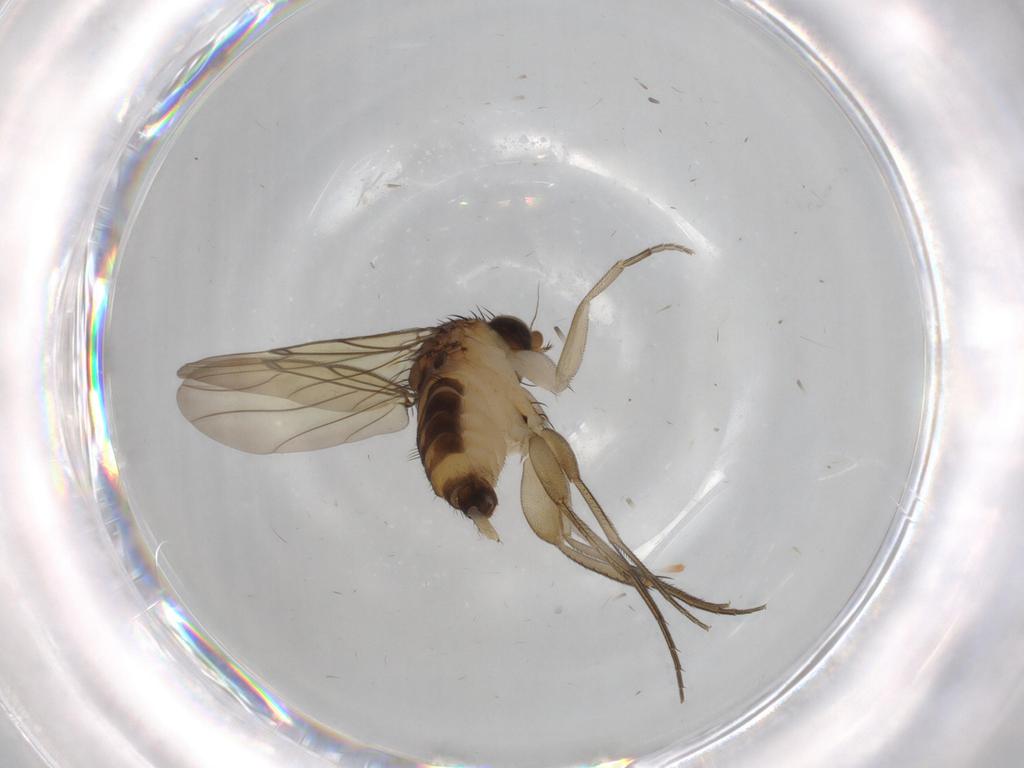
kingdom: Animalia
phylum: Arthropoda
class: Insecta
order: Diptera
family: Phoridae
